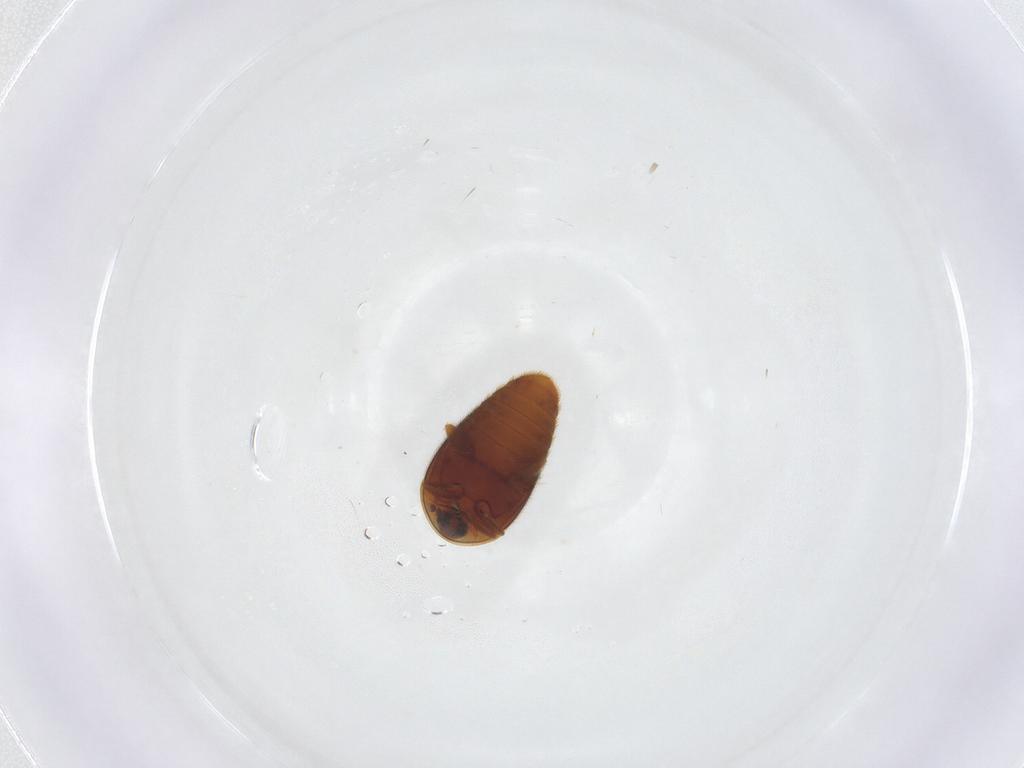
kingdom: Animalia
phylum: Arthropoda
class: Insecta
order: Coleoptera
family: Corylophidae
